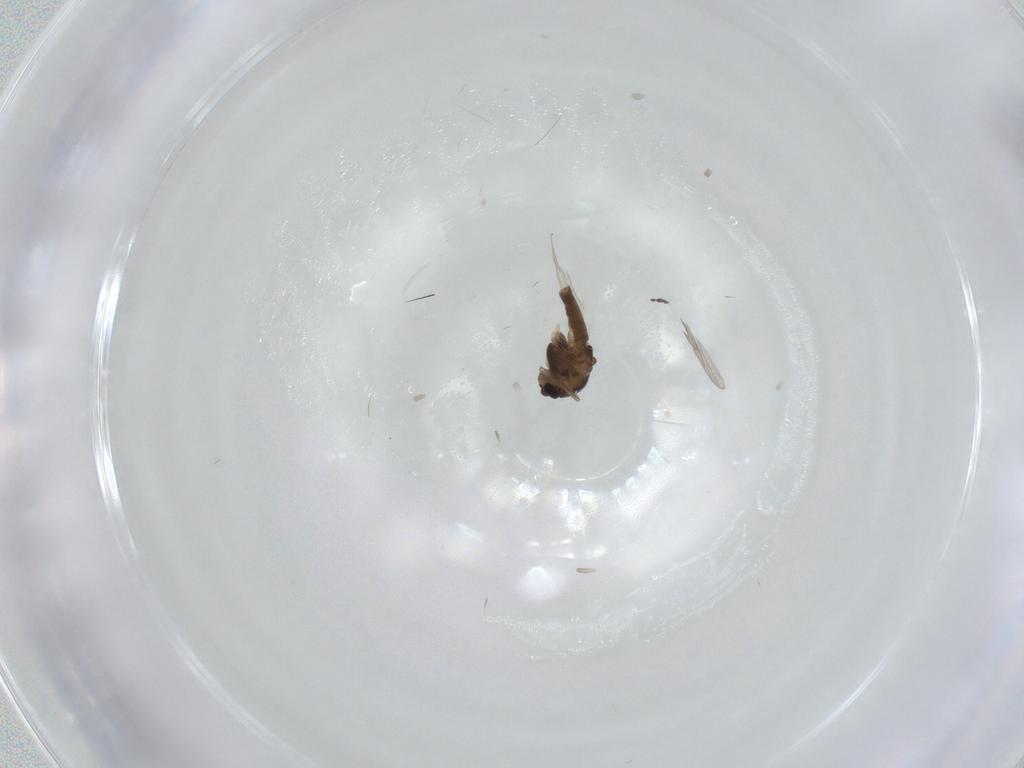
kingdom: Animalia
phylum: Arthropoda
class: Insecta
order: Diptera
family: Chironomidae
